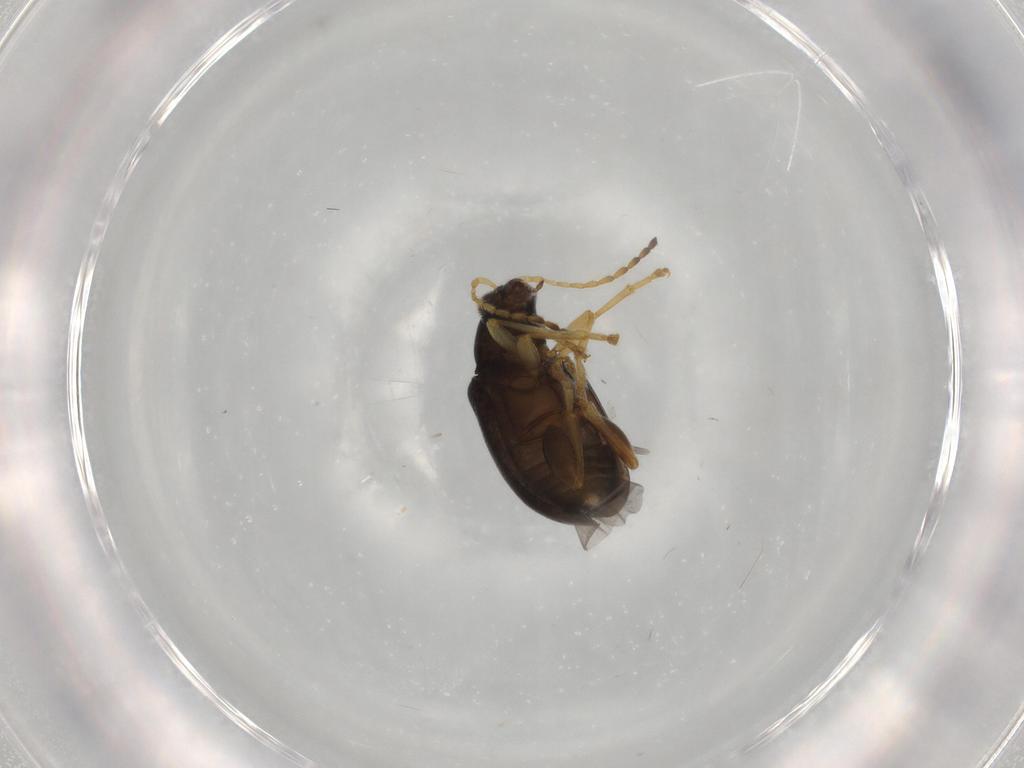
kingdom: Animalia
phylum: Arthropoda
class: Insecta
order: Coleoptera
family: Chrysomelidae
